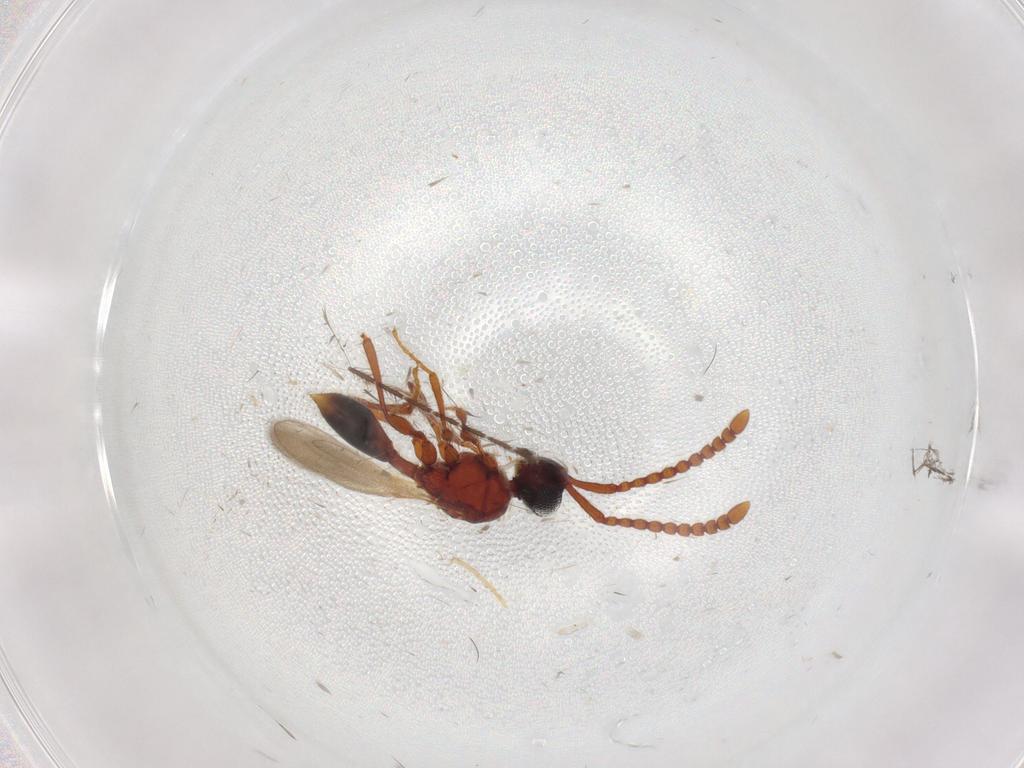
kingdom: Animalia
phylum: Arthropoda
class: Insecta
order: Hymenoptera
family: Diapriidae
